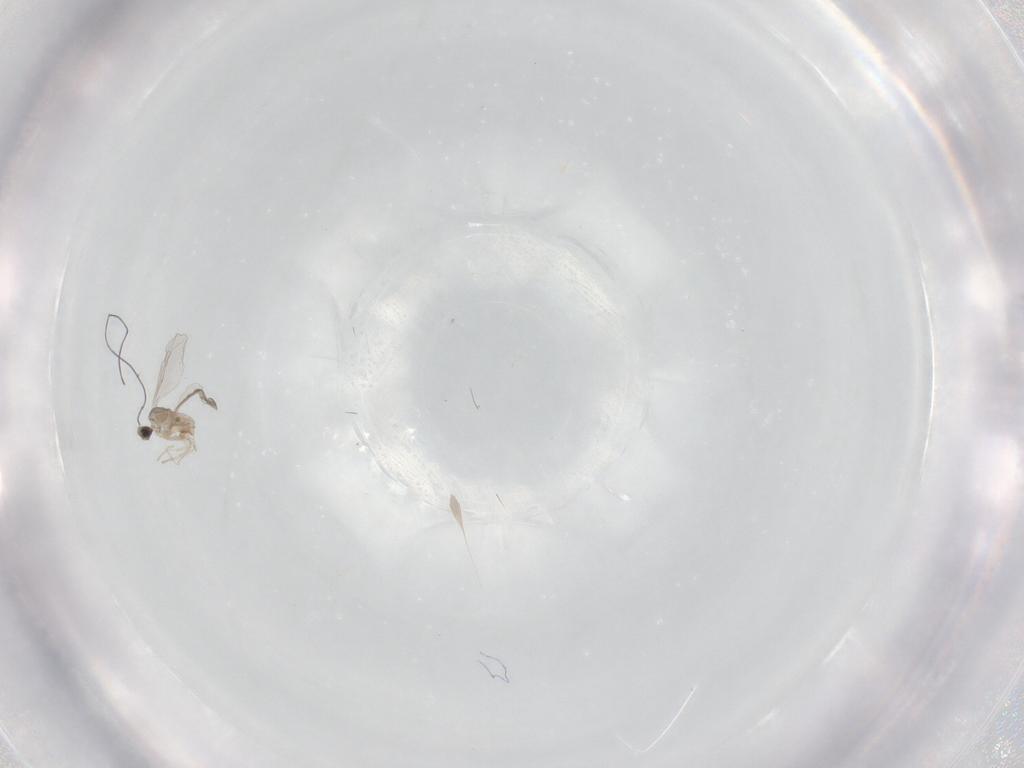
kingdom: Animalia
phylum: Arthropoda
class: Insecta
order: Diptera
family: Cecidomyiidae
